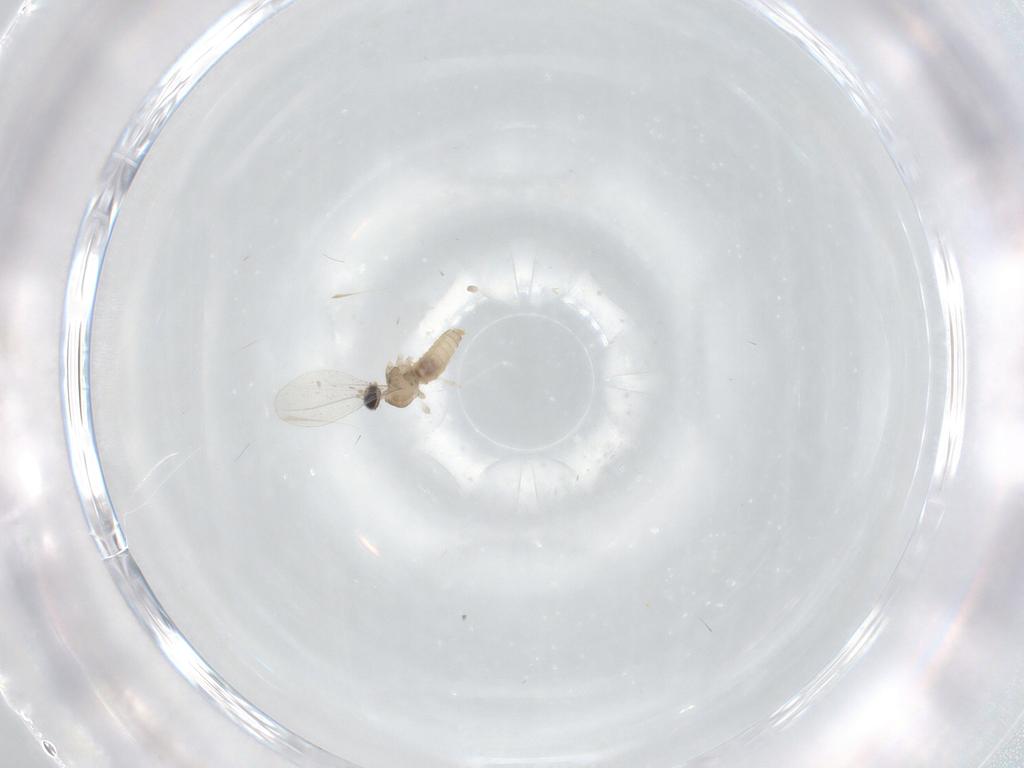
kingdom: Animalia
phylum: Arthropoda
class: Insecta
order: Diptera
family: Cecidomyiidae
